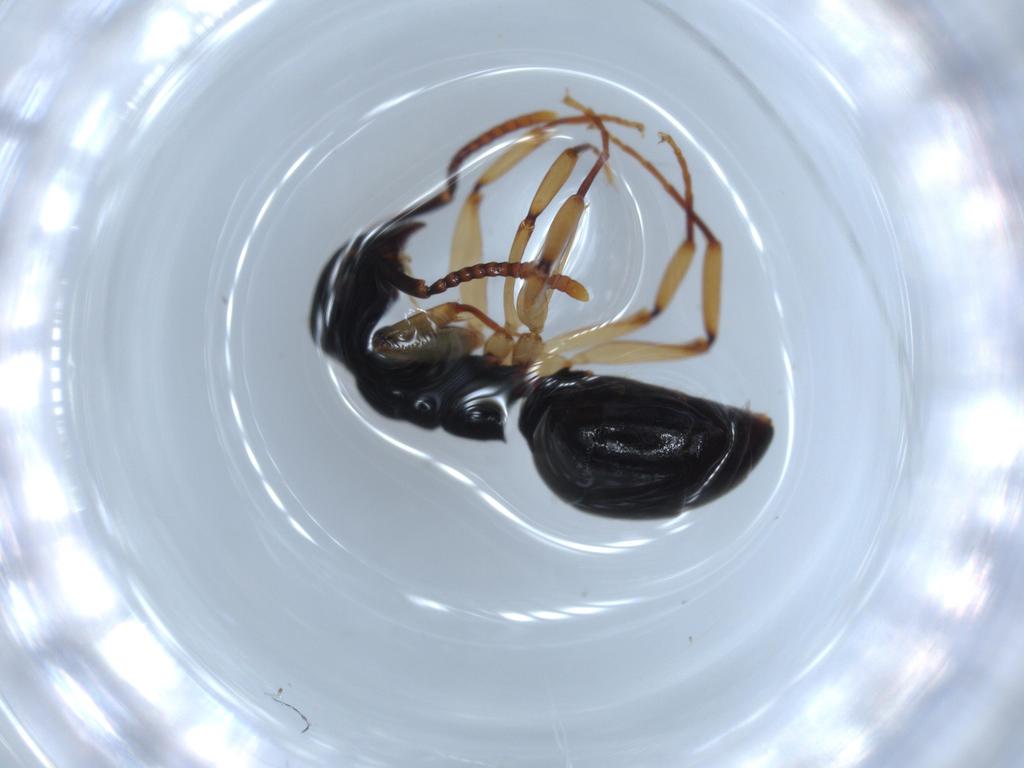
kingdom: Animalia
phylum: Arthropoda
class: Insecta
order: Hymenoptera
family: Formicidae
